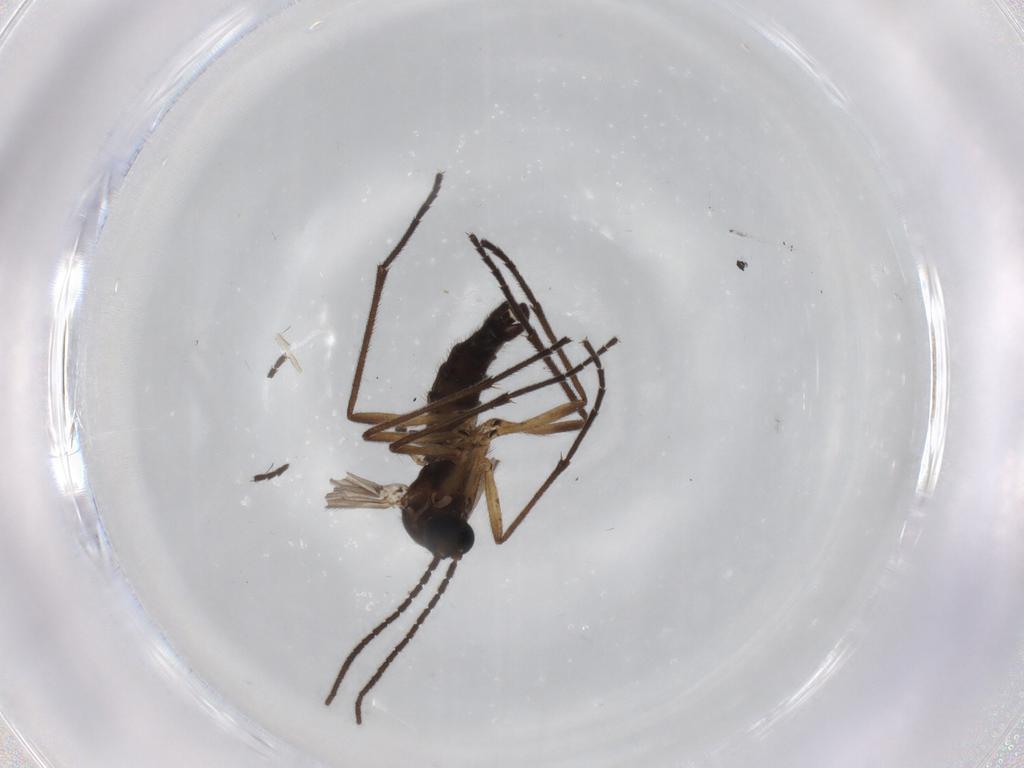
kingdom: Animalia
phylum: Arthropoda
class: Insecta
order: Diptera
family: Sciaridae
